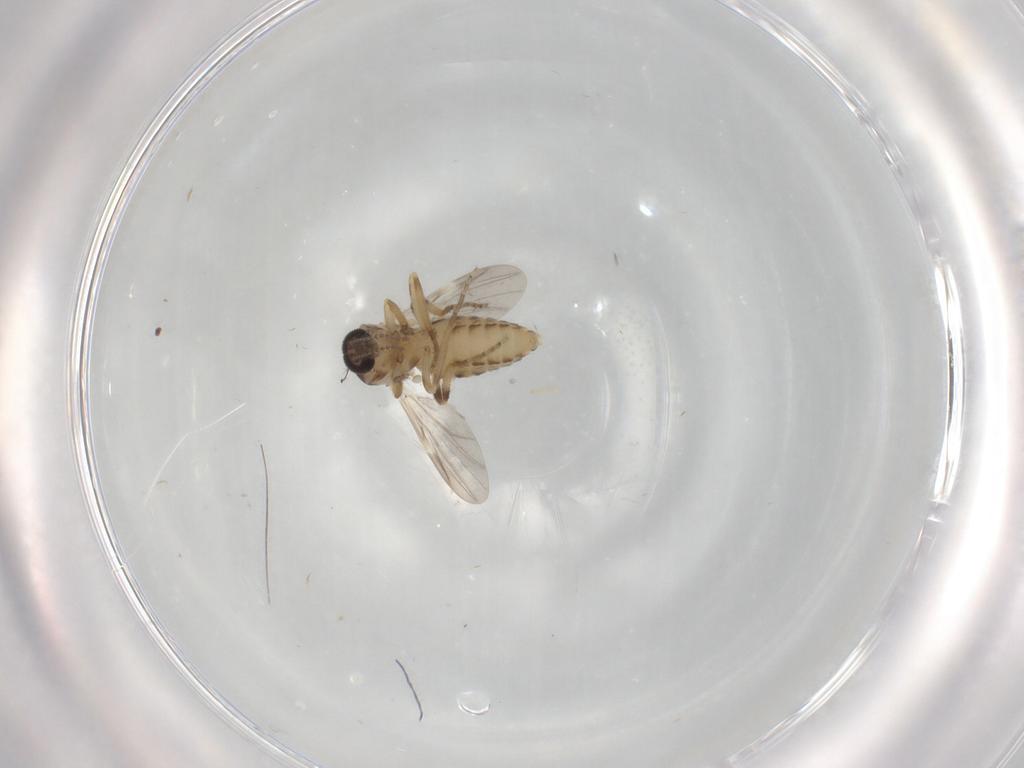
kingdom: Animalia
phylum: Arthropoda
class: Insecta
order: Diptera
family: Ceratopogonidae
